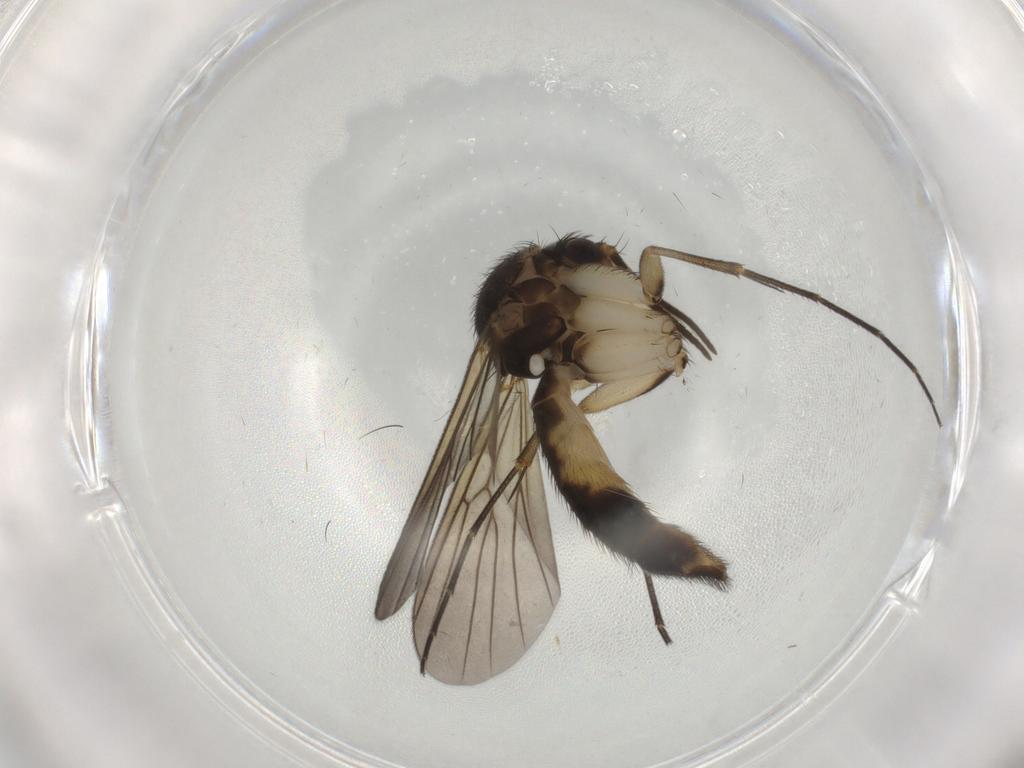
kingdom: Animalia
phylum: Arthropoda
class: Insecta
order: Diptera
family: Mycetophilidae
